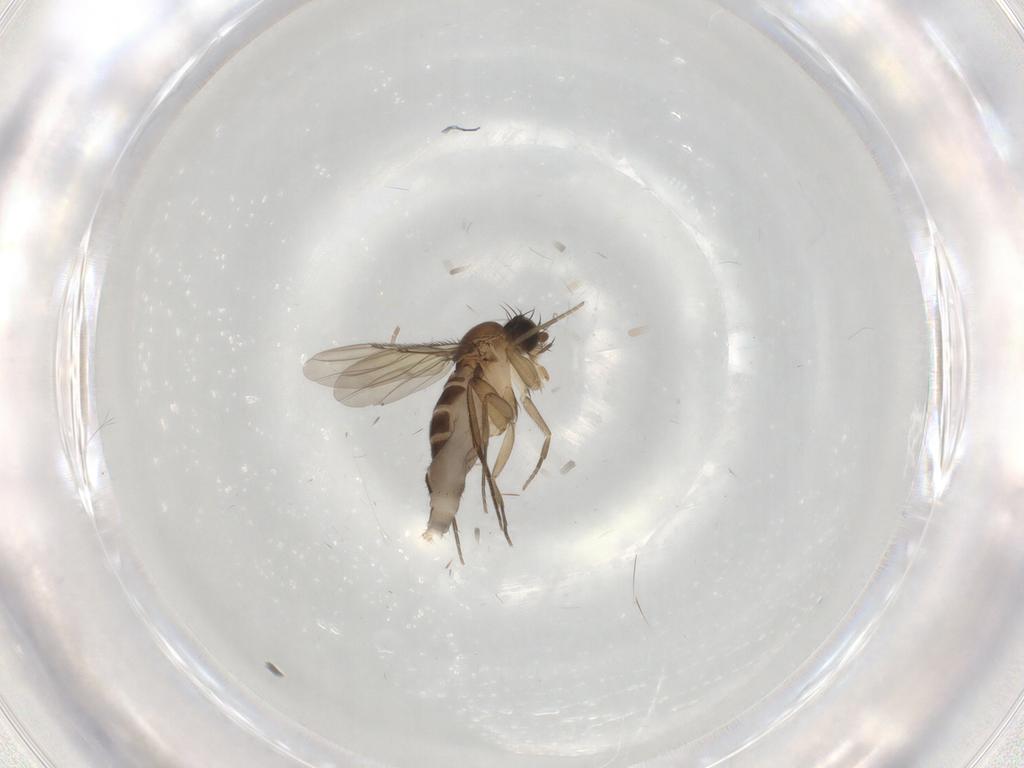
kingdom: Animalia
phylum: Arthropoda
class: Insecta
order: Diptera
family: Phoridae
